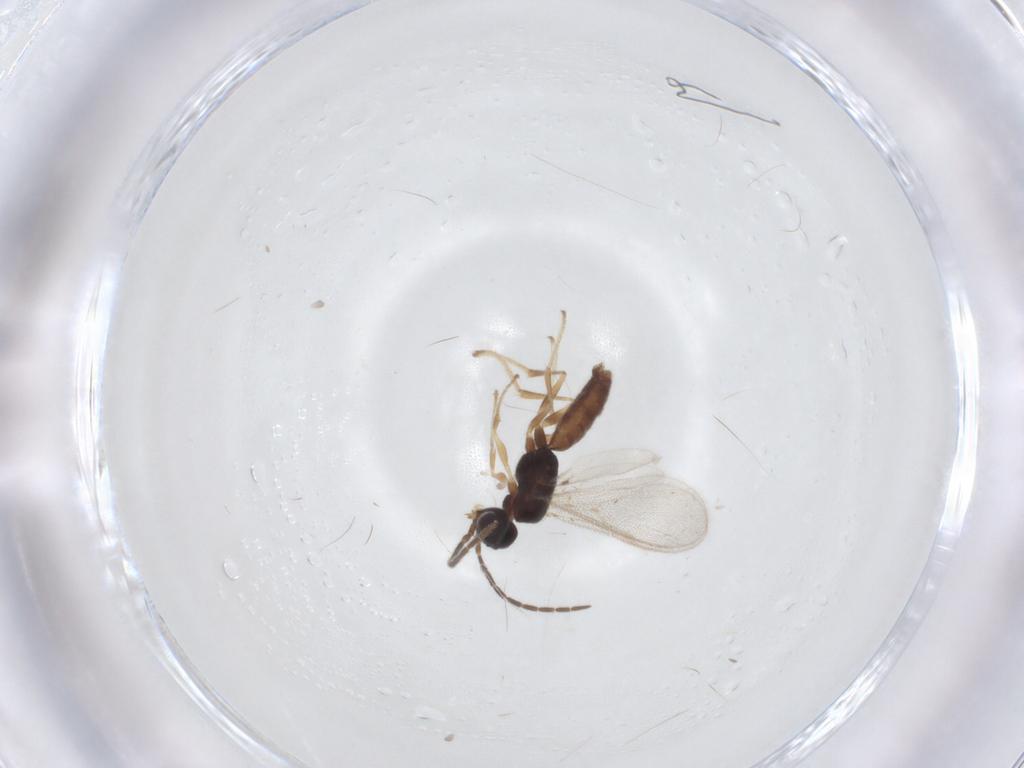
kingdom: Animalia
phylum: Arthropoda
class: Insecta
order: Hymenoptera
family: Dryinidae
